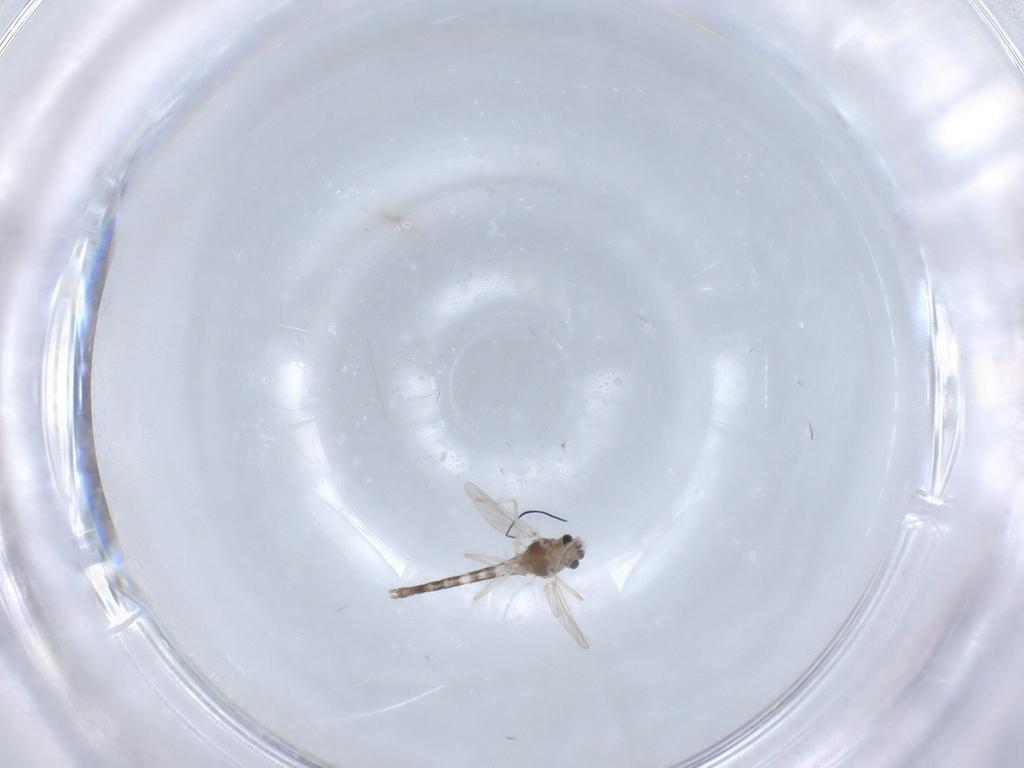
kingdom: Animalia
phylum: Arthropoda
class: Insecta
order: Diptera
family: Chironomidae
